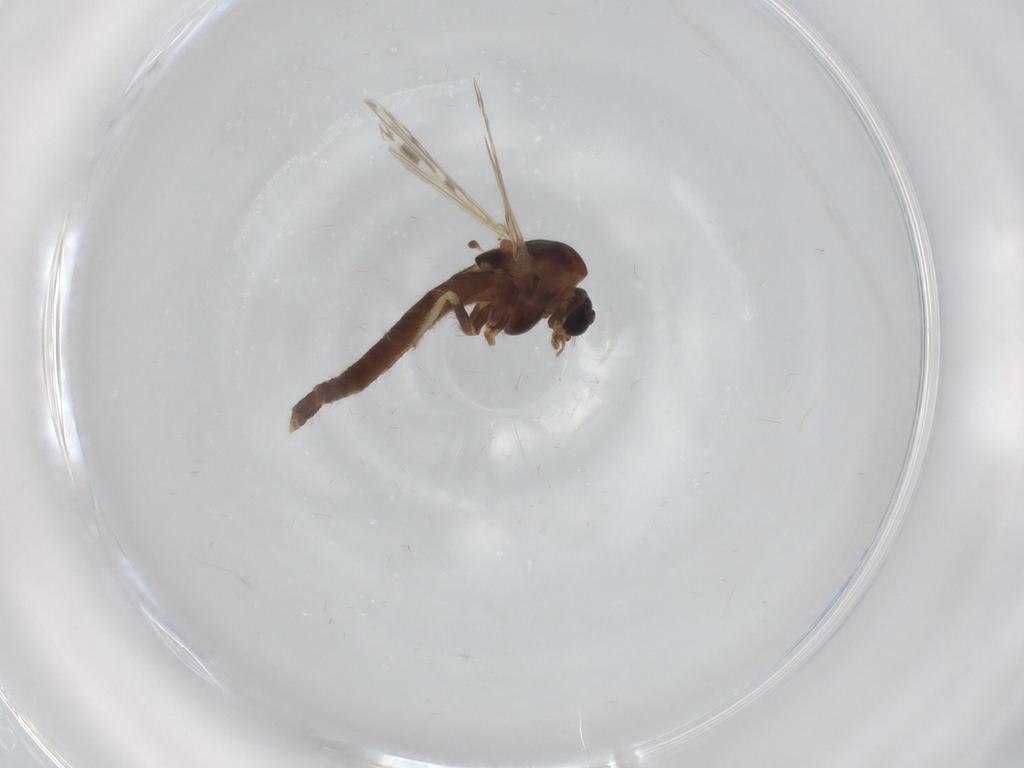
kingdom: Animalia
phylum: Arthropoda
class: Insecta
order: Diptera
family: Chironomidae
